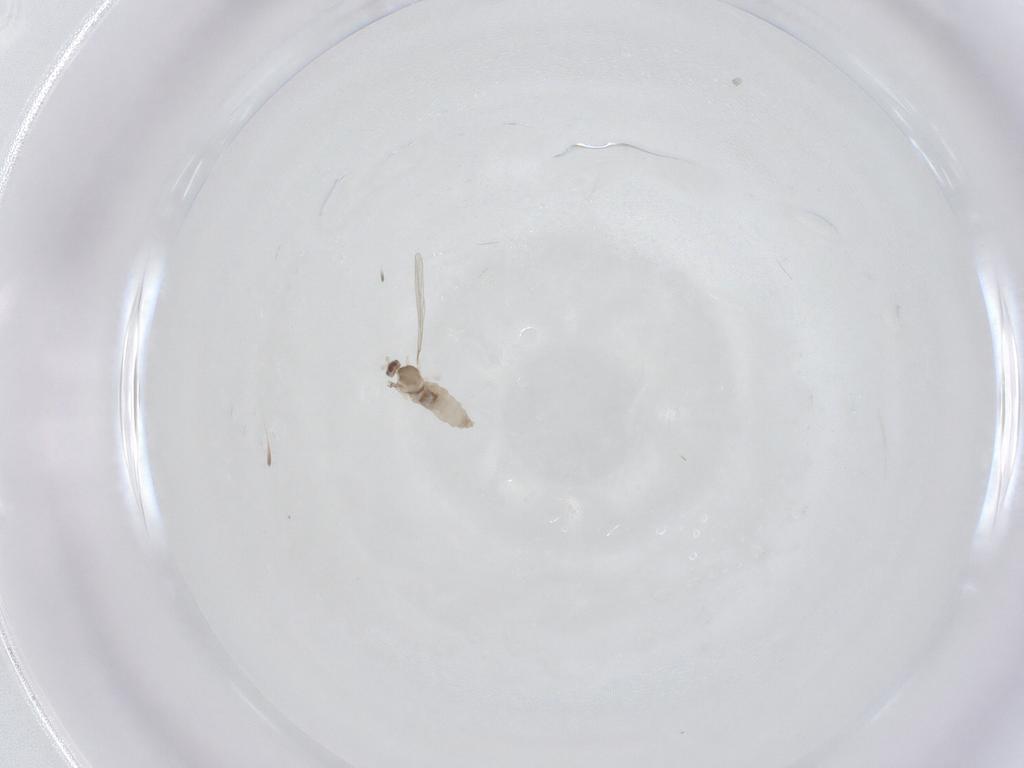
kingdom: Animalia
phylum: Arthropoda
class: Insecta
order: Diptera
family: Cecidomyiidae
